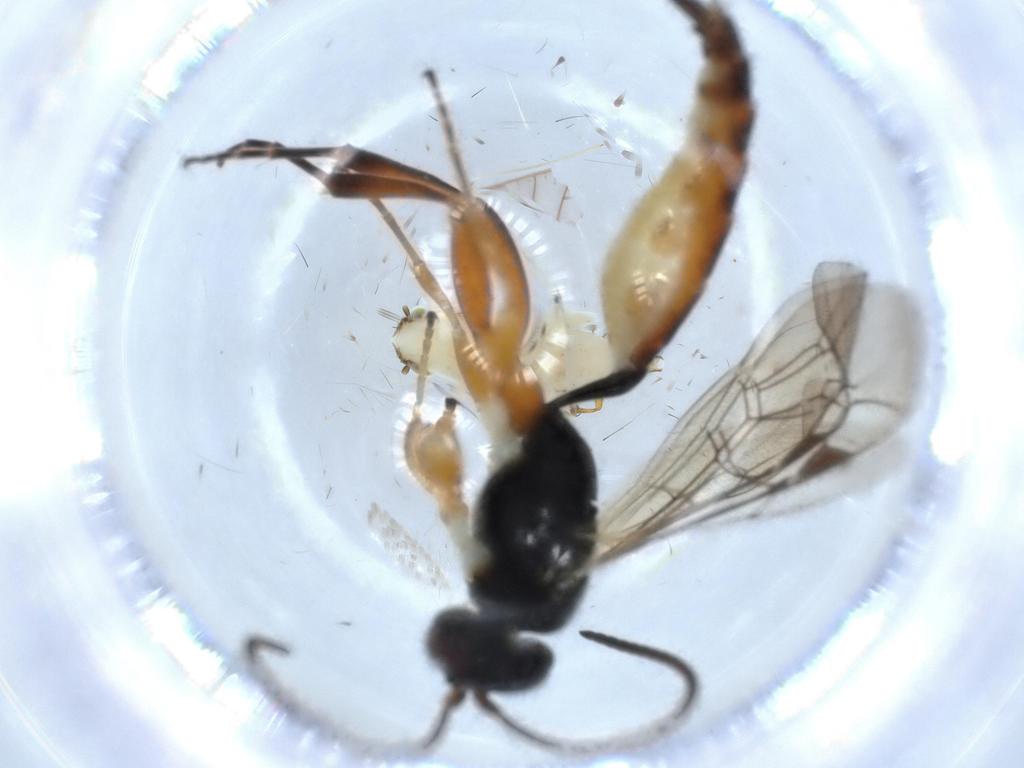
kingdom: Animalia
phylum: Arthropoda
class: Insecta
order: Hymenoptera
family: Ichneumonidae
